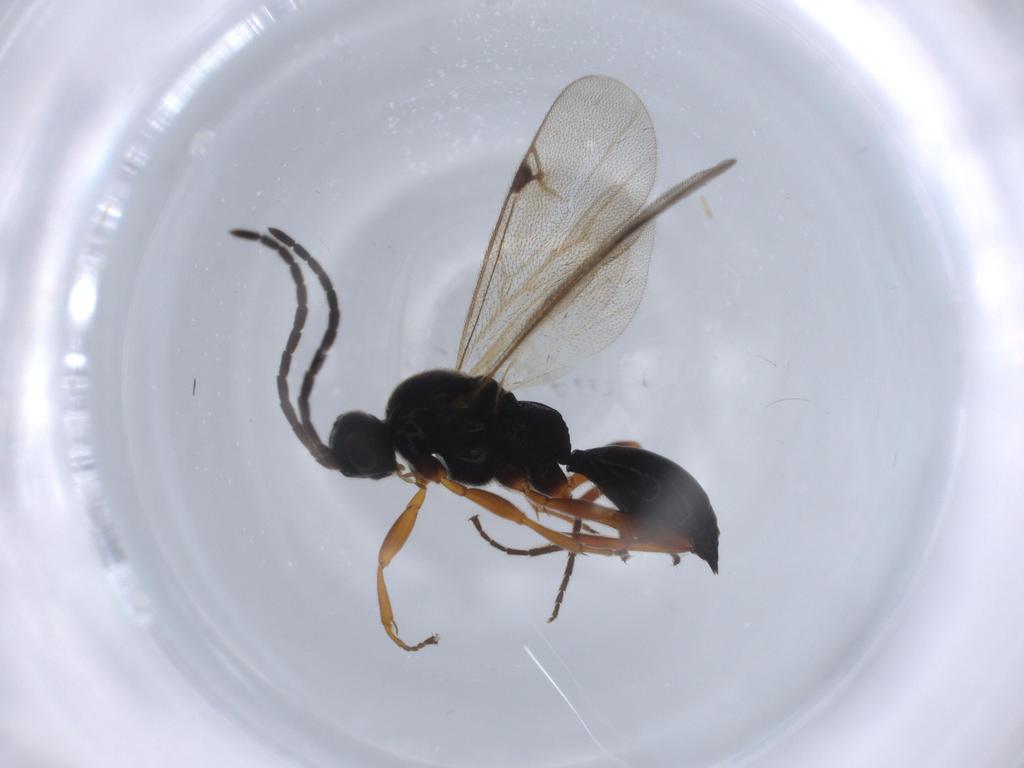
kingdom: Animalia
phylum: Arthropoda
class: Insecta
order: Hymenoptera
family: Proctotrupidae
